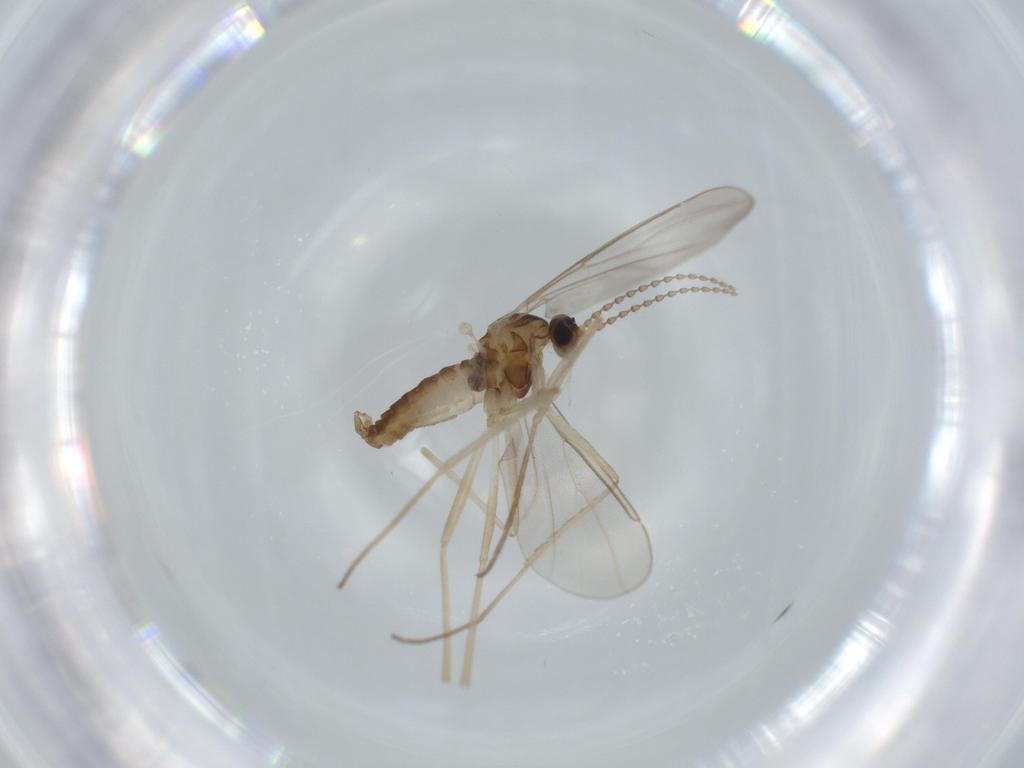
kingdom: Animalia
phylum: Arthropoda
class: Insecta
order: Diptera
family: Cecidomyiidae
